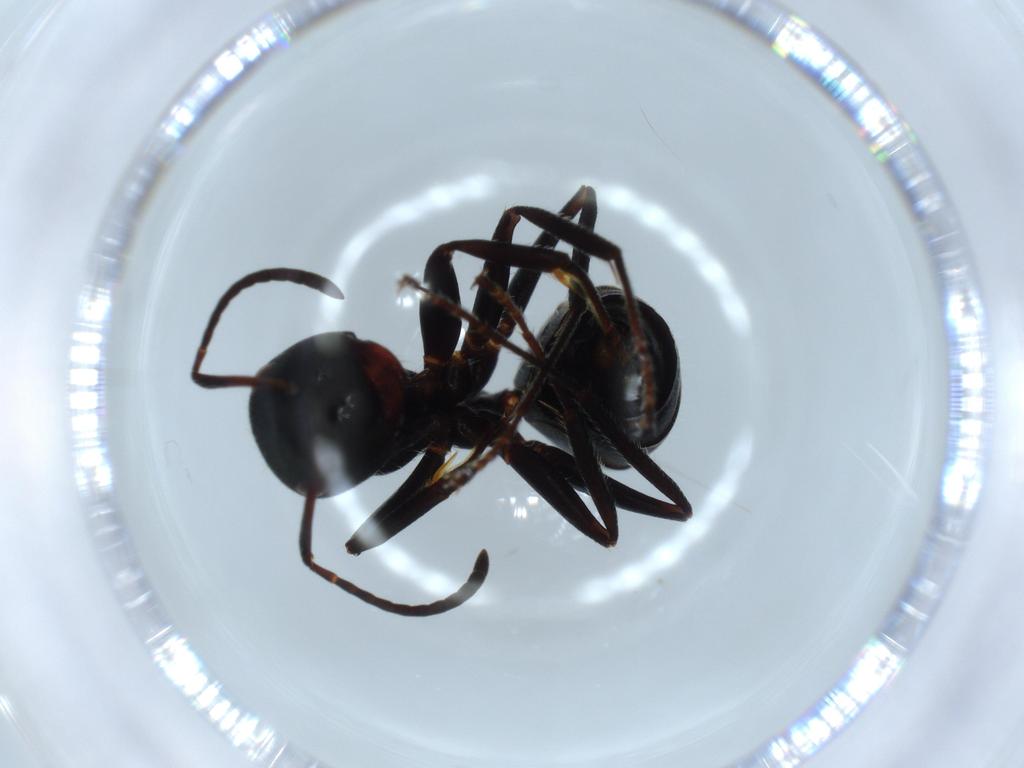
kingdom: Animalia
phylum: Arthropoda
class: Insecta
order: Hymenoptera
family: Formicidae
